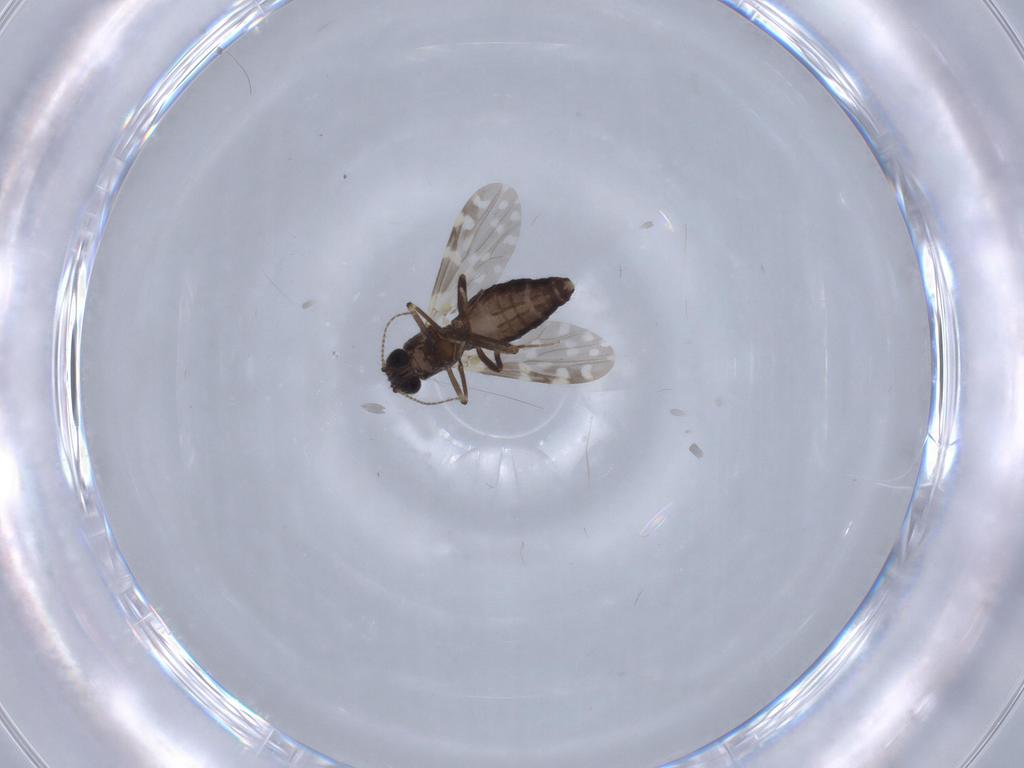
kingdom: Animalia
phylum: Arthropoda
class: Insecta
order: Diptera
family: Ceratopogonidae
